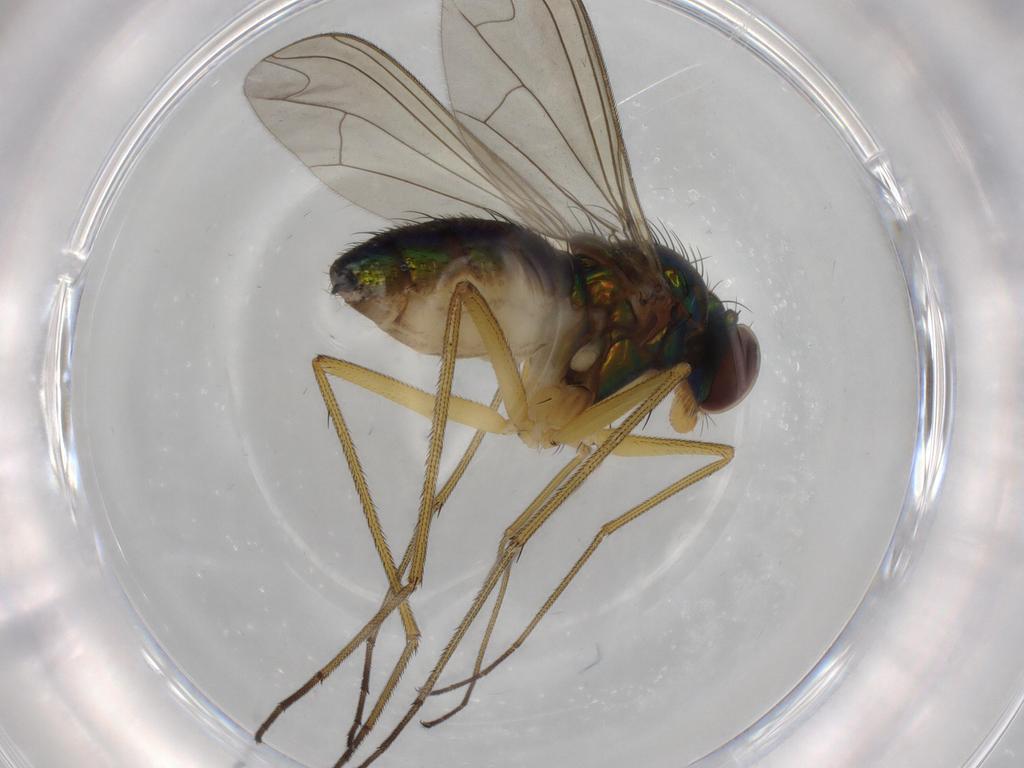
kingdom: Animalia
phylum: Arthropoda
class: Insecta
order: Diptera
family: Dolichopodidae
